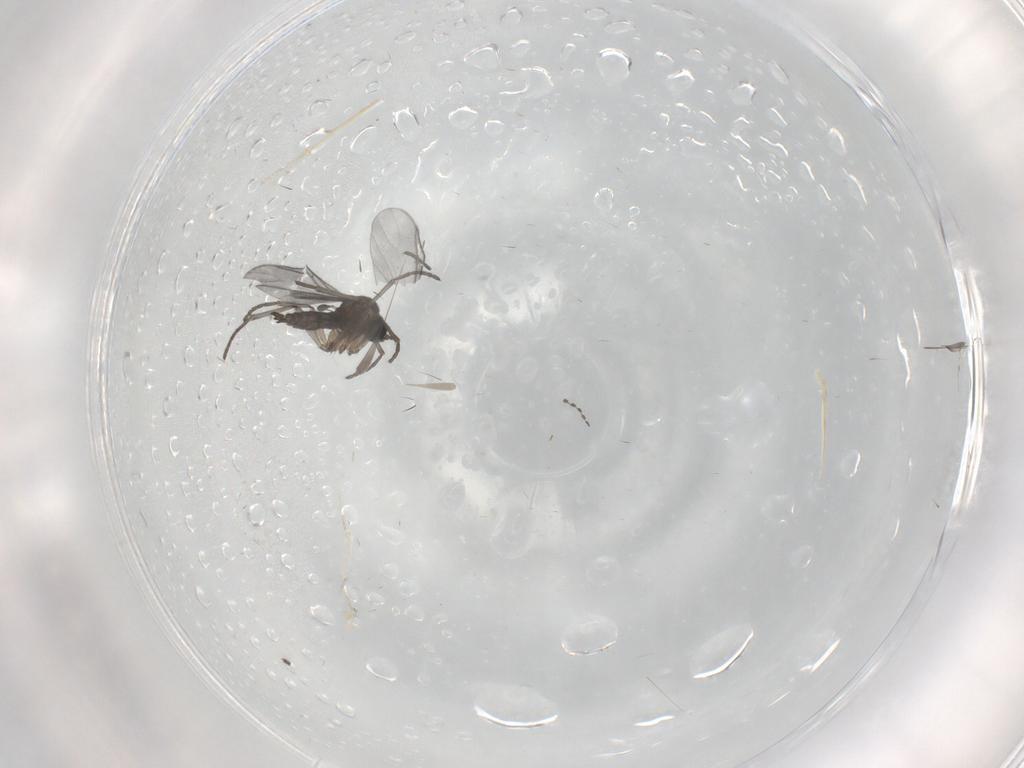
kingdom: Animalia
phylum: Arthropoda
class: Insecta
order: Diptera
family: Sciaridae
